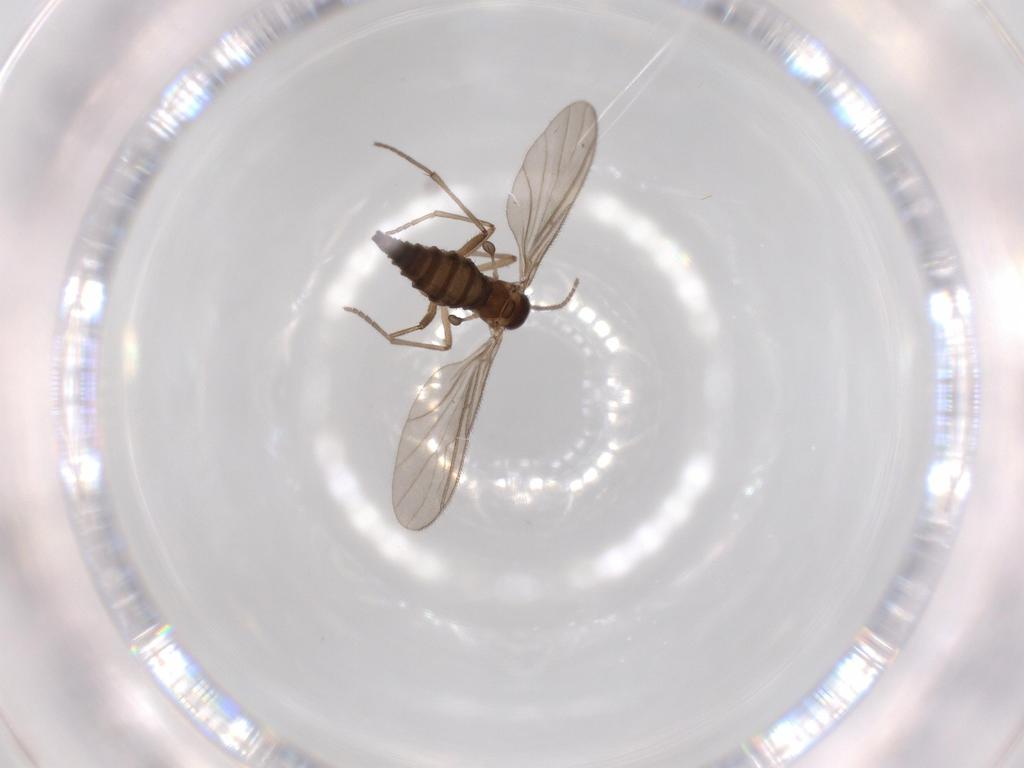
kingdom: Animalia
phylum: Arthropoda
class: Insecta
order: Diptera
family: Sciaridae
